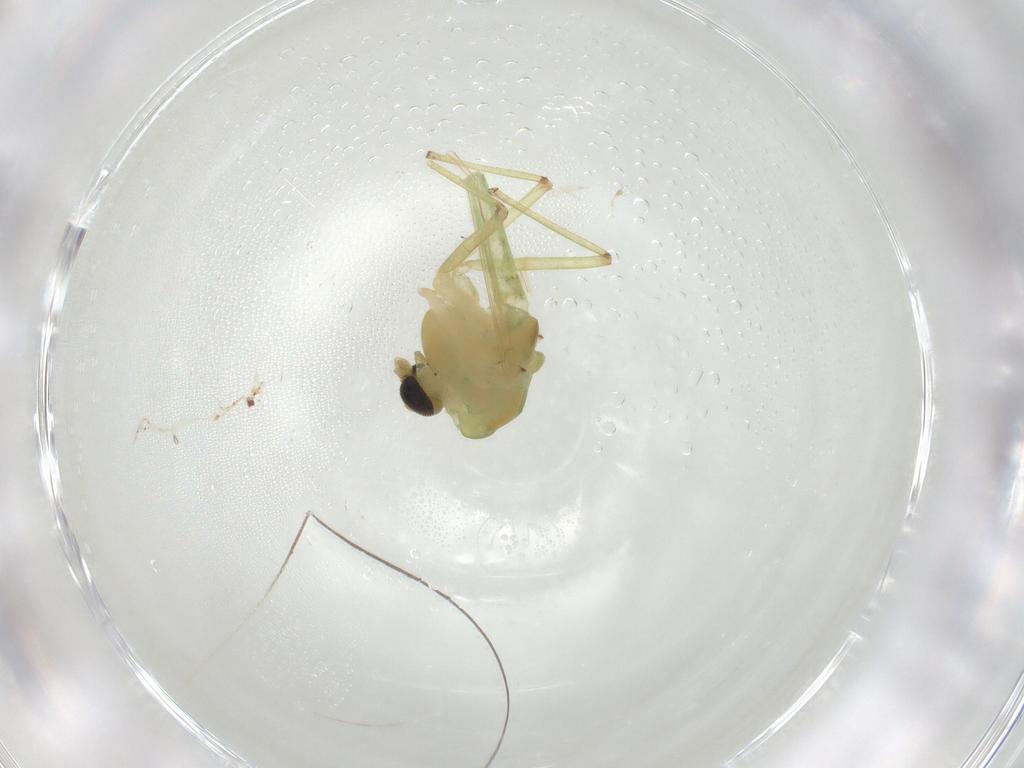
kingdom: Animalia
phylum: Arthropoda
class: Insecta
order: Diptera
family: Chironomidae
